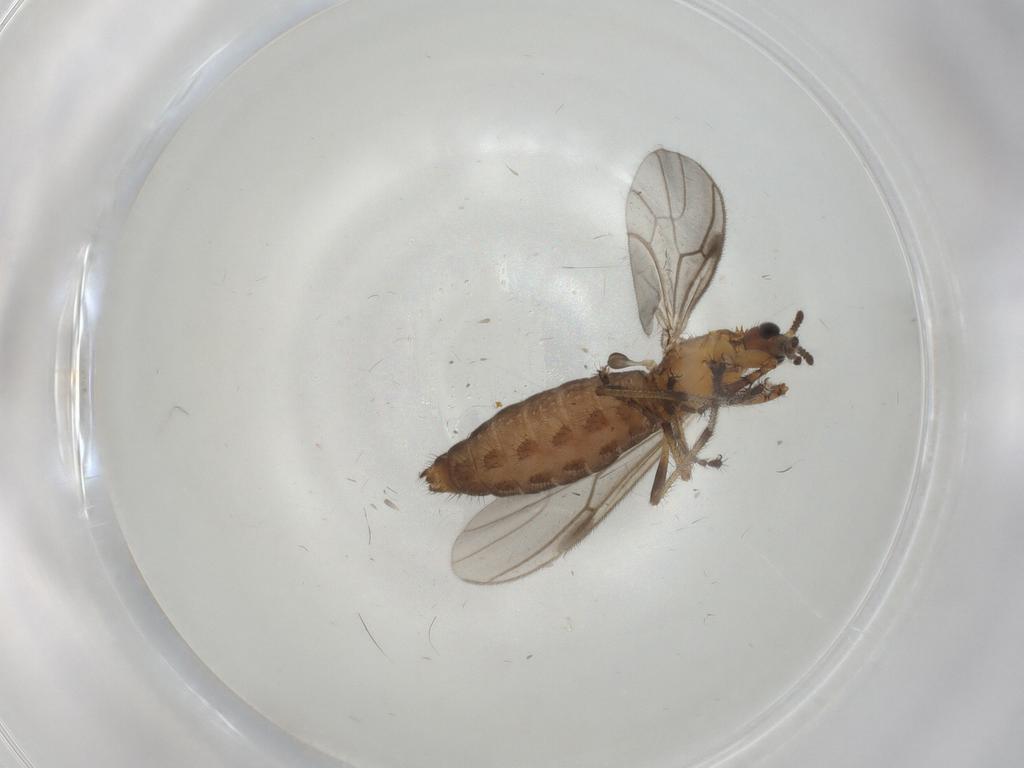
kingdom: Animalia
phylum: Arthropoda
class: Insecta
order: Diptera
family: Bibionidae
